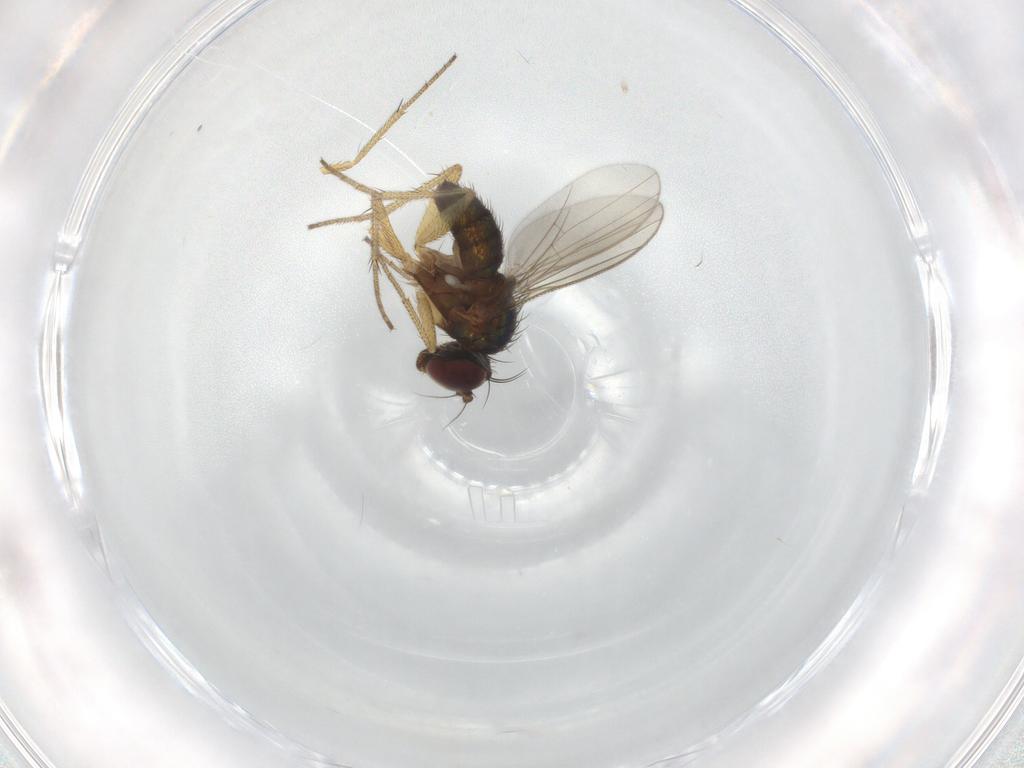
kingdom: Animalia
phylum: Arthropoda
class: Insecta
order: Diptera
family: Dolichopodidae
